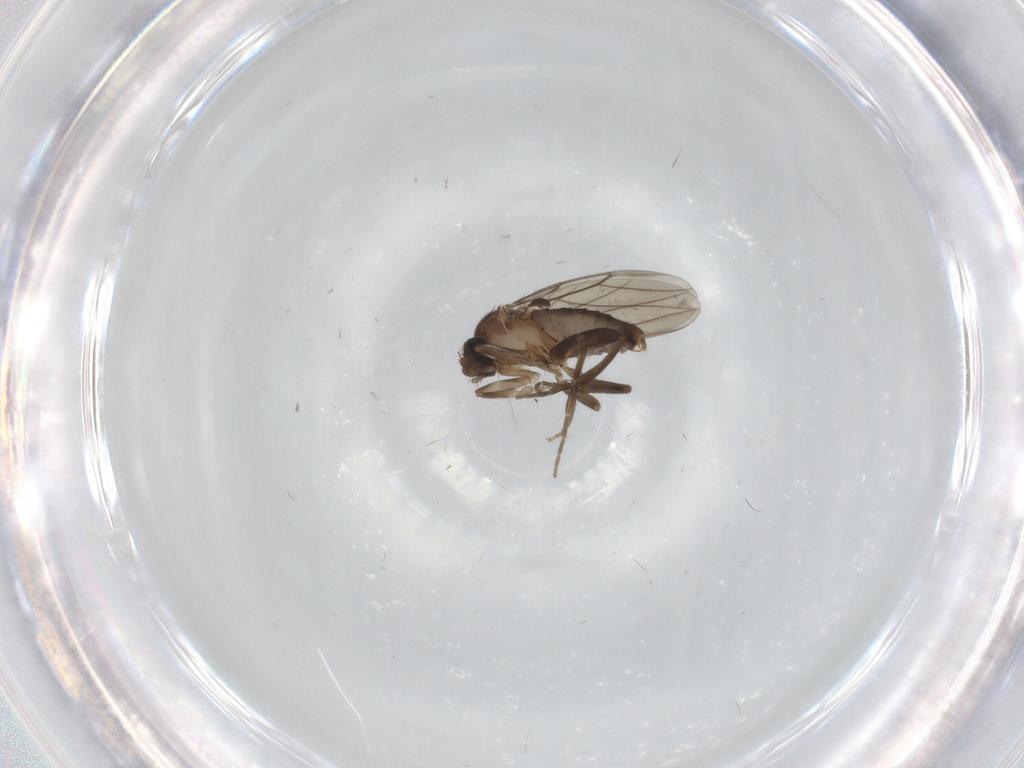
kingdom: Animalia
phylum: Arthropoda
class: Insecta
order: Diptera
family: Phoridae
